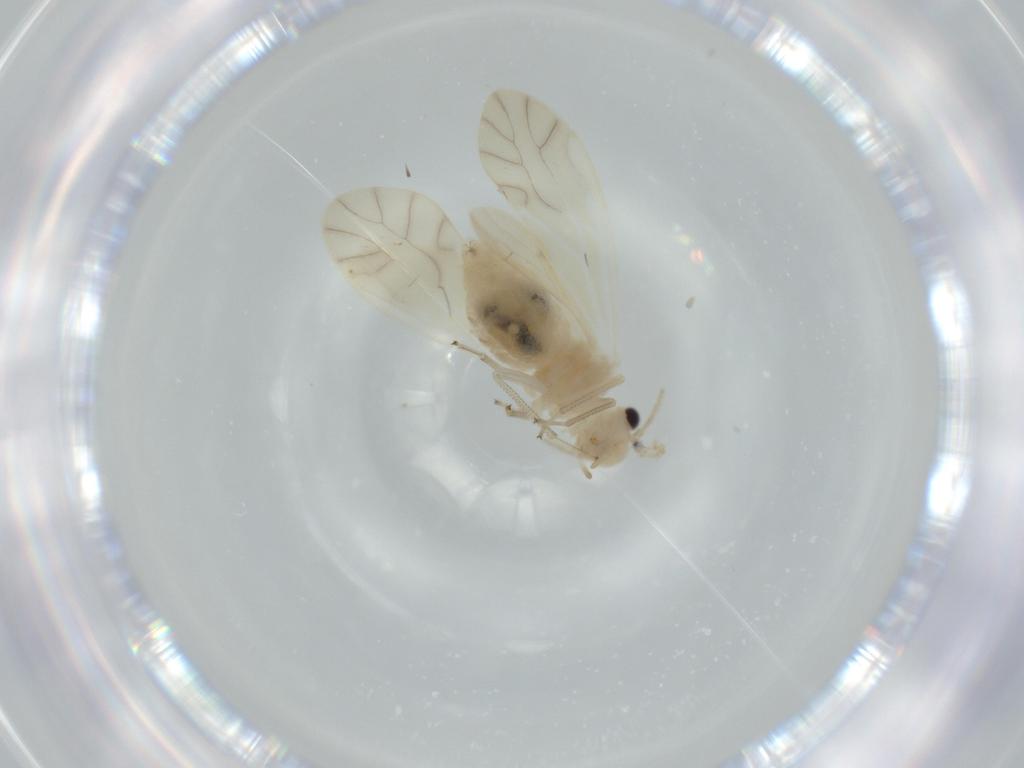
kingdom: Animalia
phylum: Arthropoda
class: Insecta
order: Psocodea
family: Caeciliusidae
